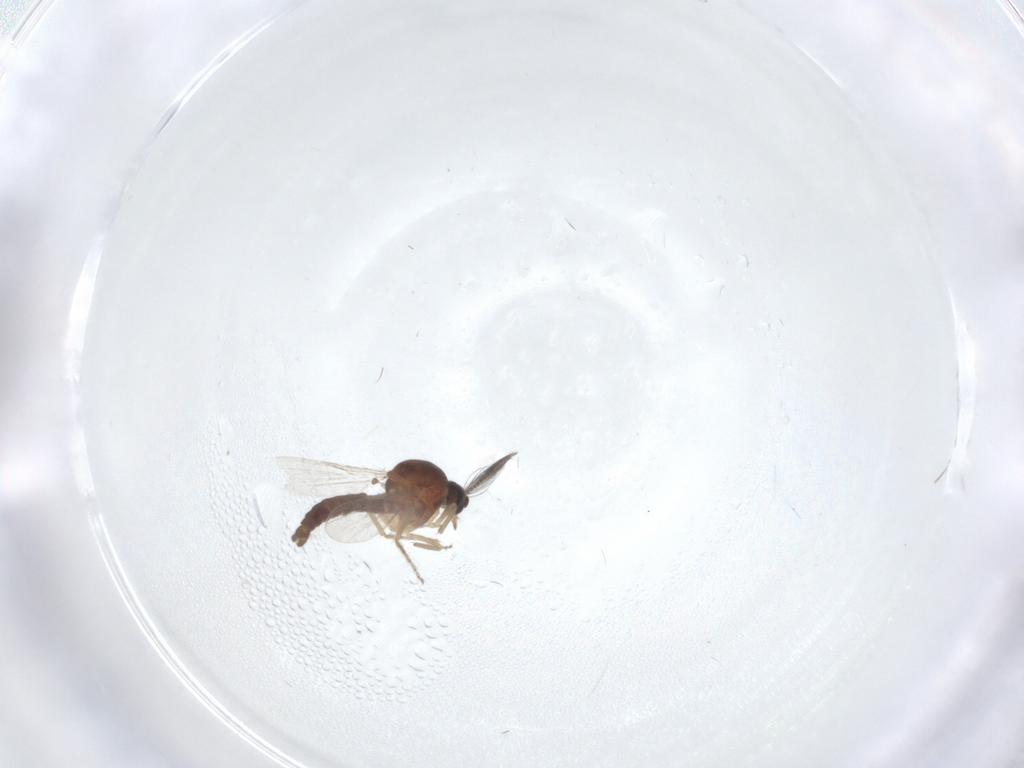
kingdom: Animalia
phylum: Arthropoda
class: Insecta
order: Diptera
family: Ceratopogonidae
